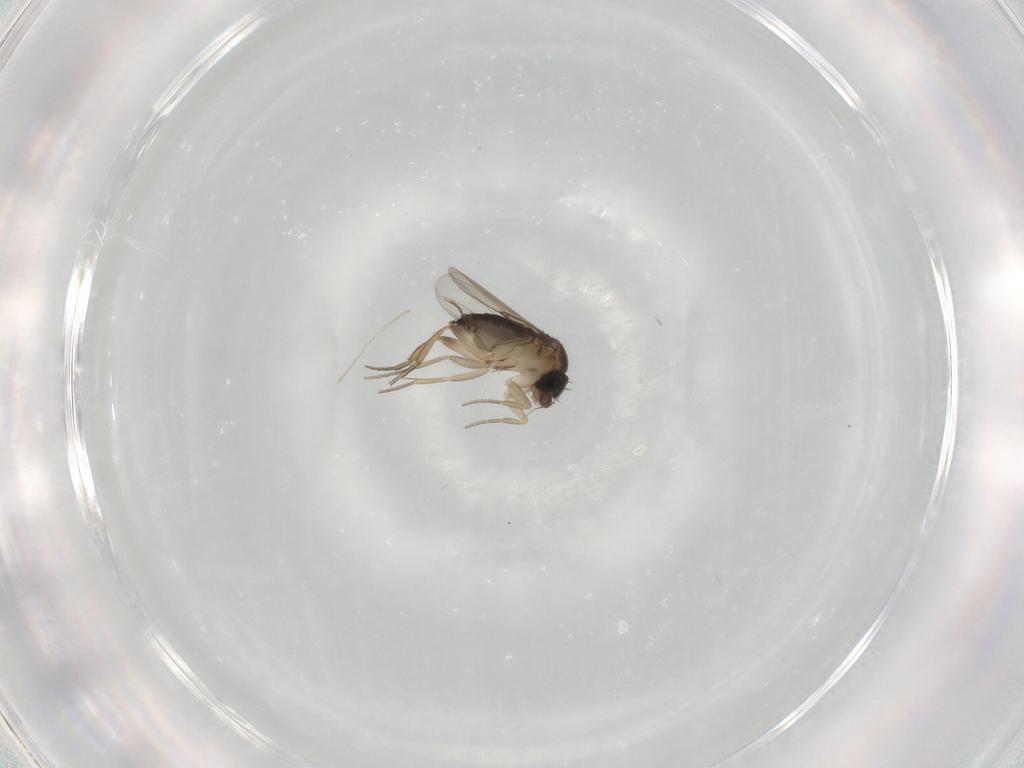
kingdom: Animalia
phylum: Arthropoda
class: Insecta
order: Diptera
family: Phoridae
